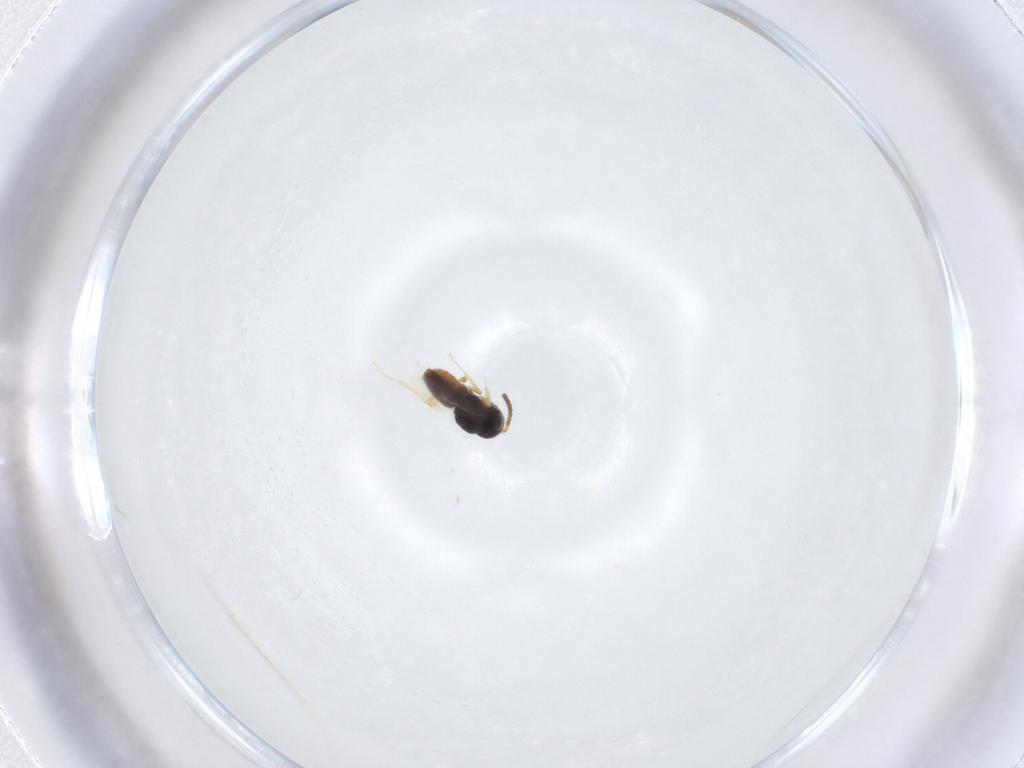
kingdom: Animalia
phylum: Arthropoda
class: Insecta
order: Hymenoptera
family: Scelionidae
